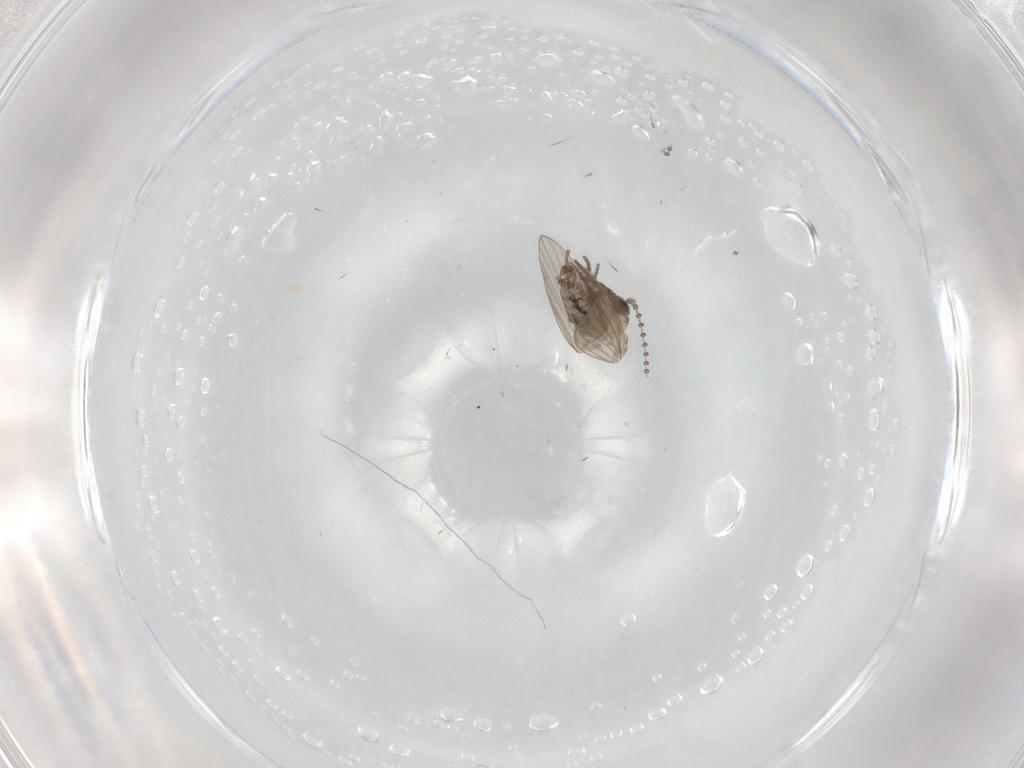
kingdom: Animalia
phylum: Arthropoda
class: Insecta
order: Diptera
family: Psychodidae
